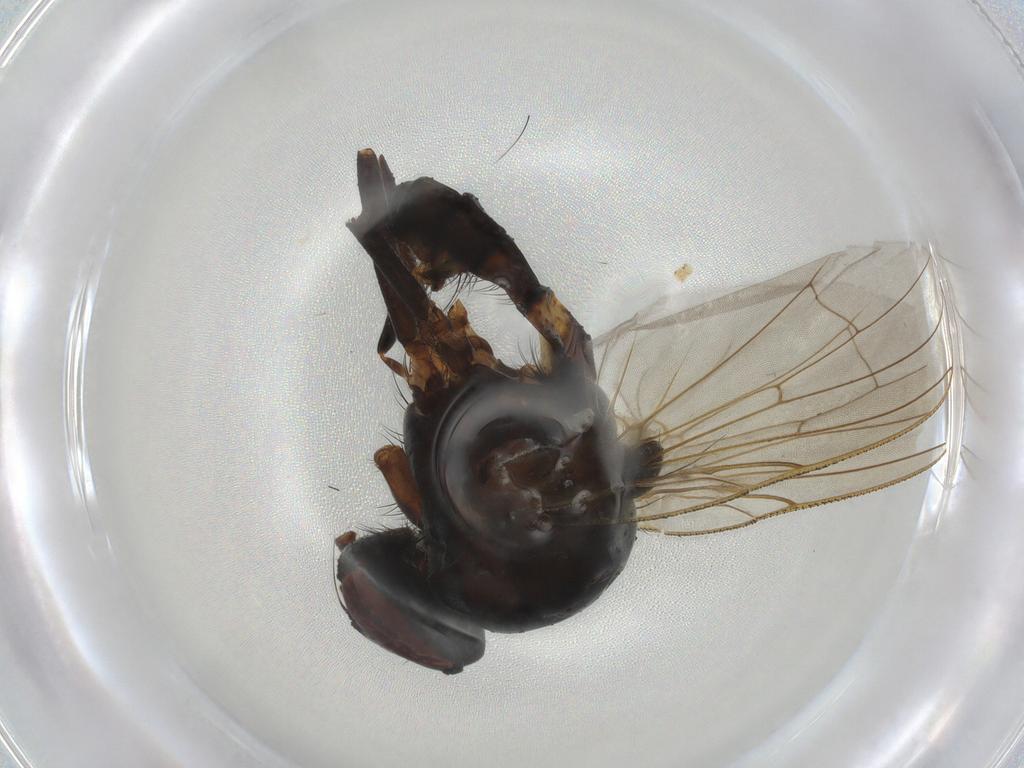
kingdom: Animalia
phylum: Arthropoda
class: Insecta
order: Diptera
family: Anthomyiidae
